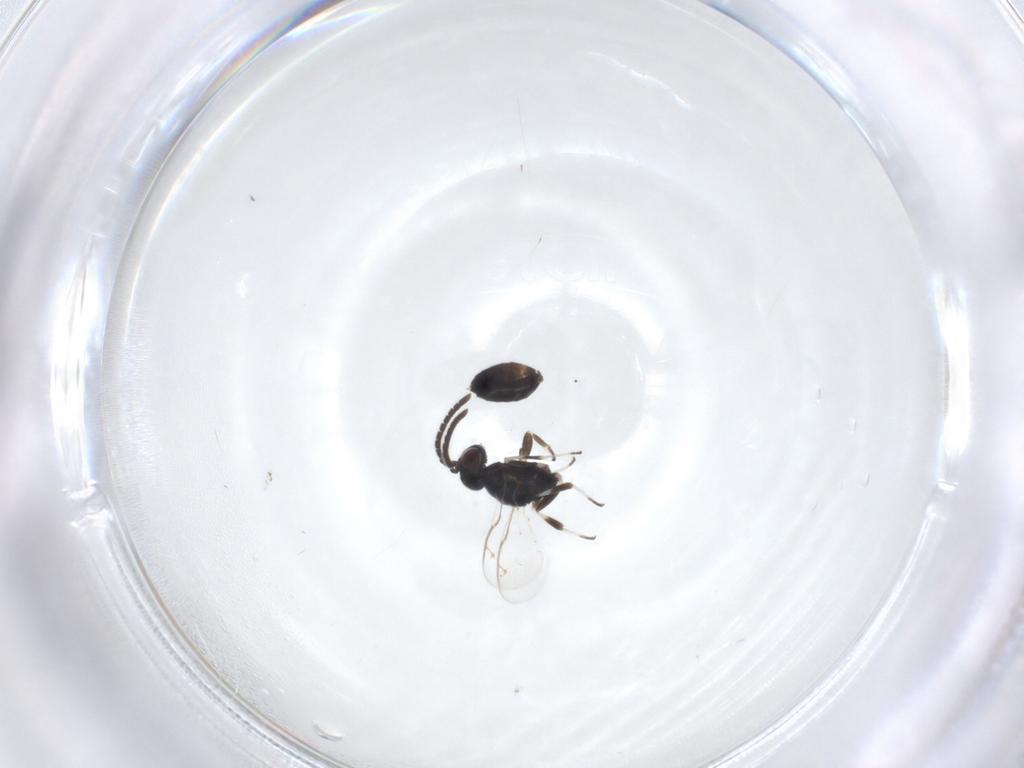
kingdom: Animalia
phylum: Arthropoda
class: Insecta
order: Hymenoptera
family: Eupelmidae
